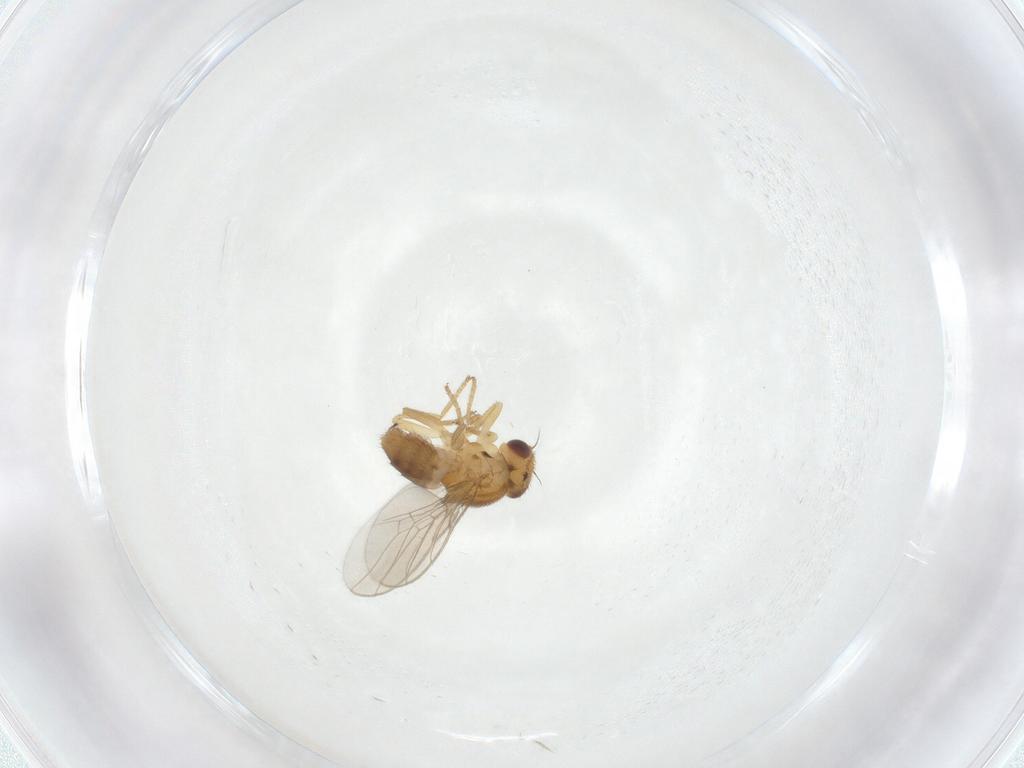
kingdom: Animalia
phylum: Arthropoda
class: Insecta
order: Diptera
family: Chloropidae
